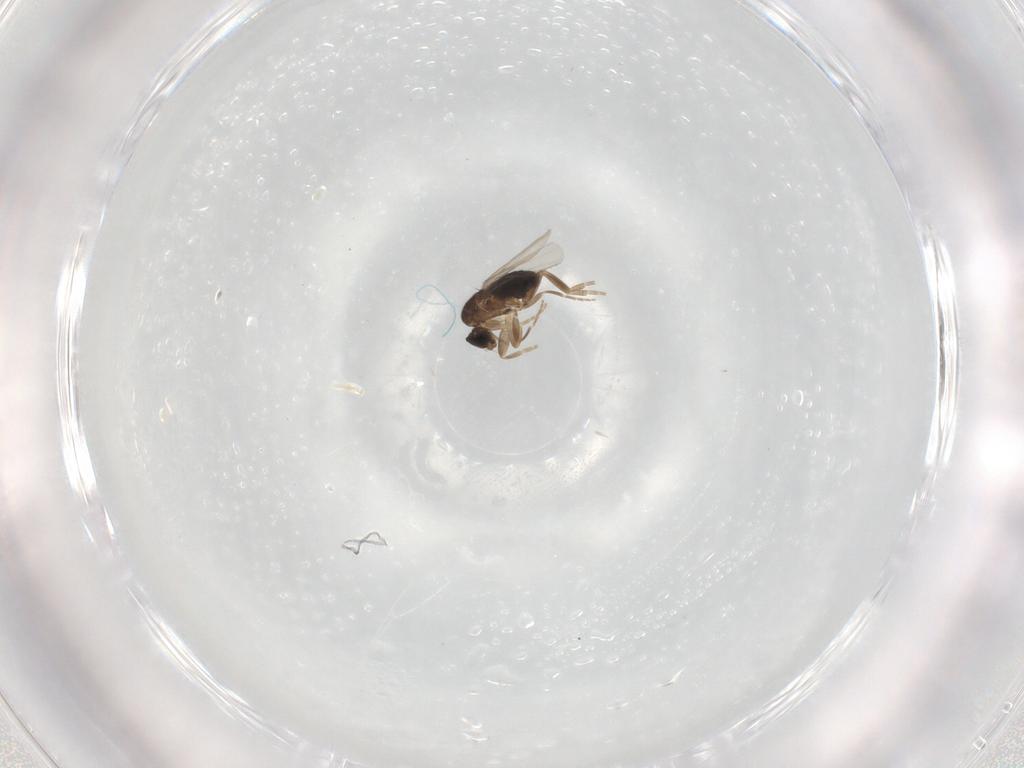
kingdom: Animalia
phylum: Arthropoda
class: Insecta
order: Diptera
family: Phoridae
